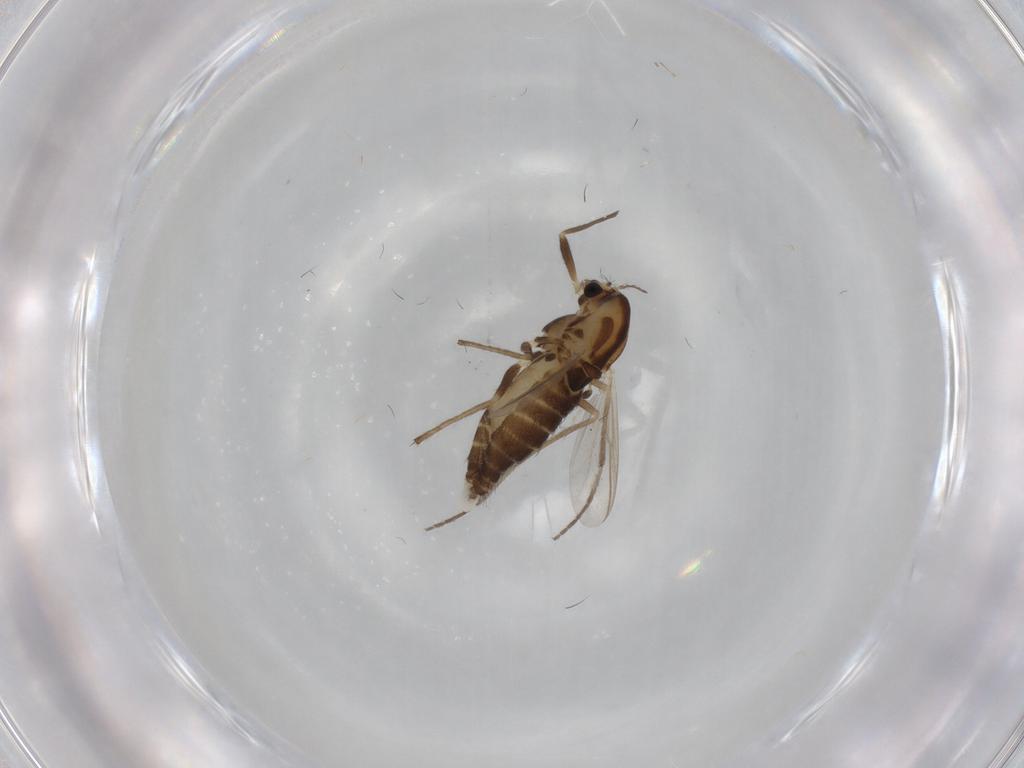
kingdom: Animalia
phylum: Arthropoda
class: Insecta
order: Diptera
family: Chironomidae
